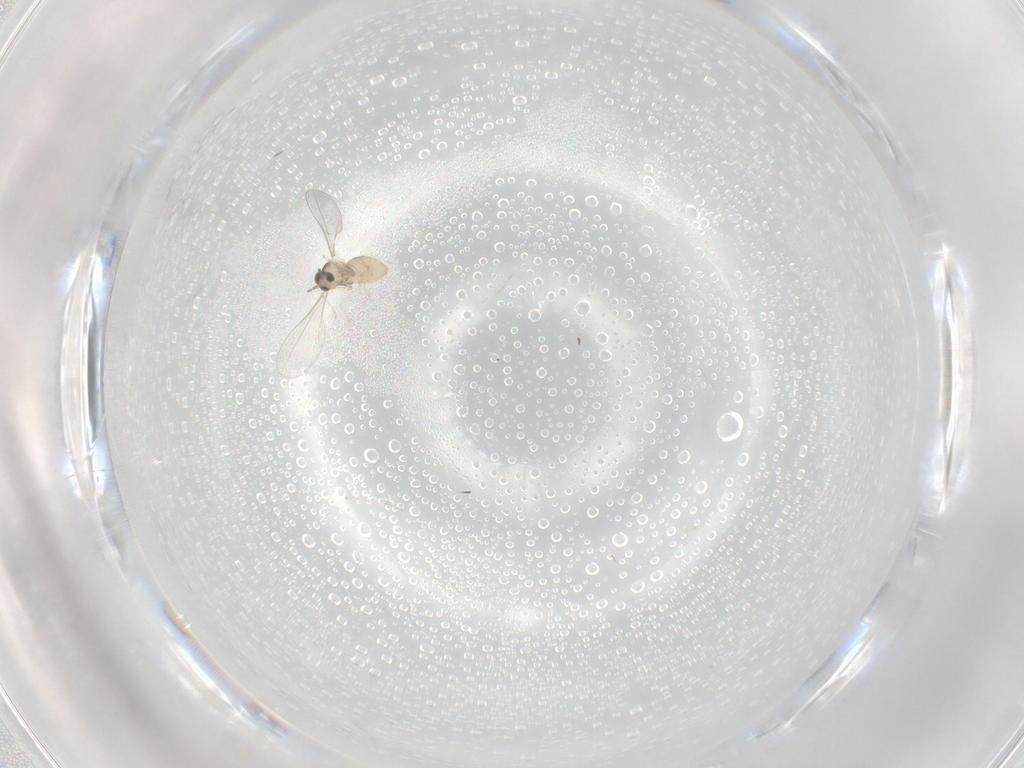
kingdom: Animalia
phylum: Arthropoda
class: Insecta
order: Diptera
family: Cecidomyiidae
